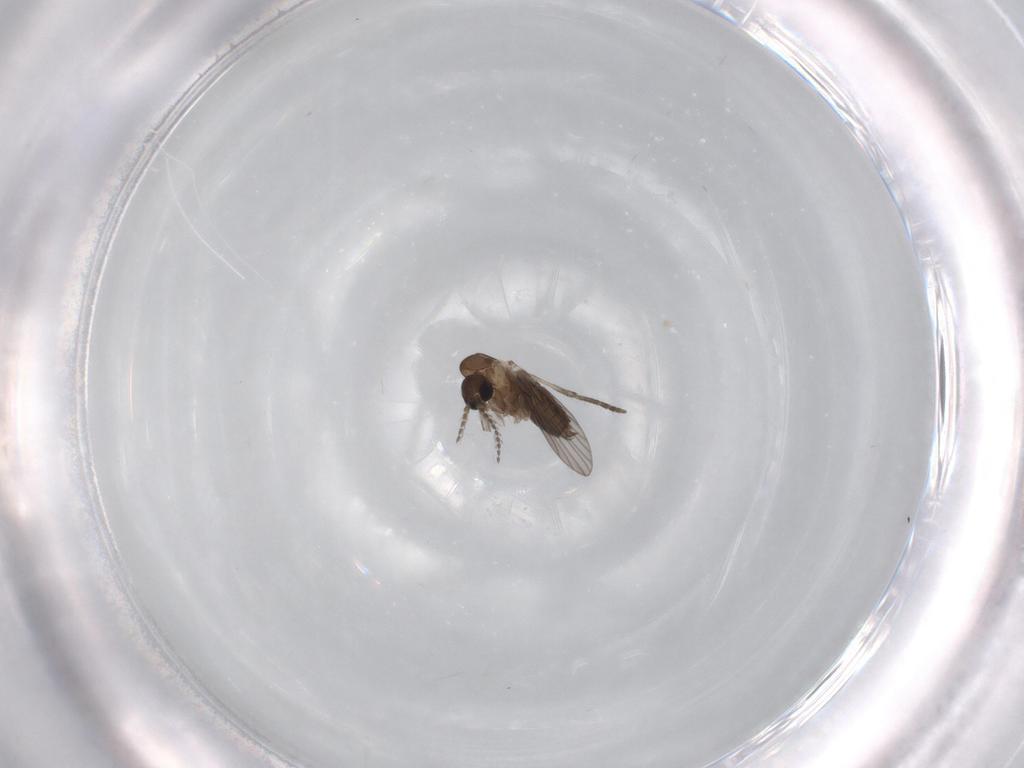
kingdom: Animalia
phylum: Arthropoda
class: Insecta
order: Diptera
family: Psychodidae
